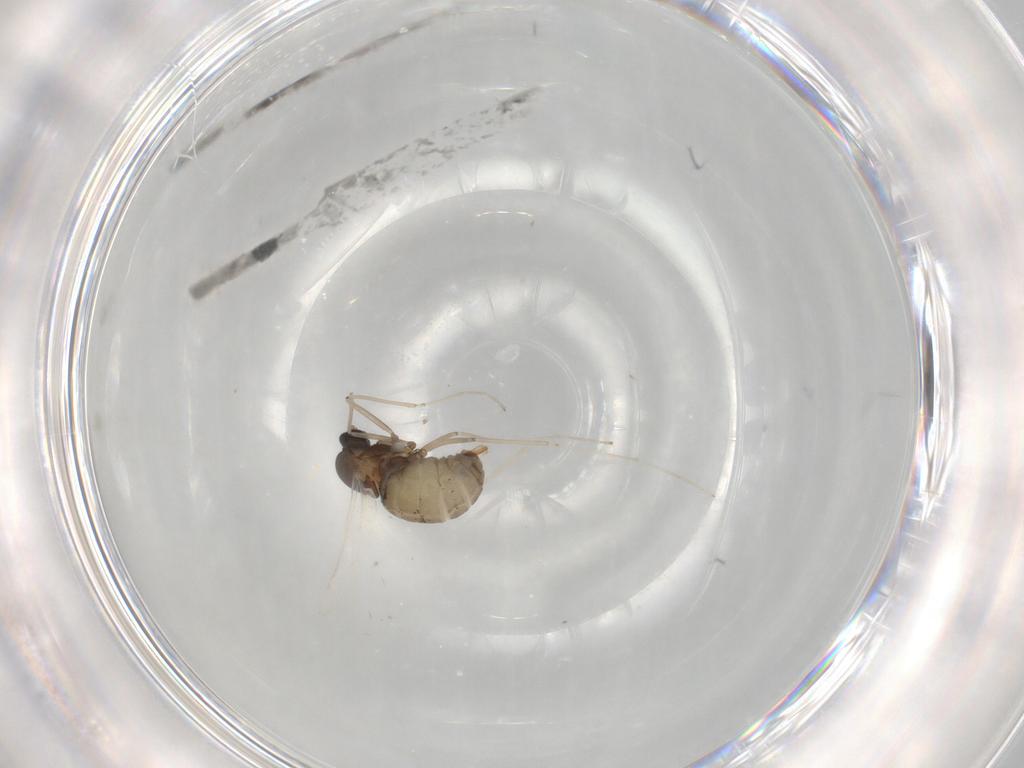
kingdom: Animalia
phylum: Arthropoda
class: Insecta
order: Diptera
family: Cecidomyiidae
